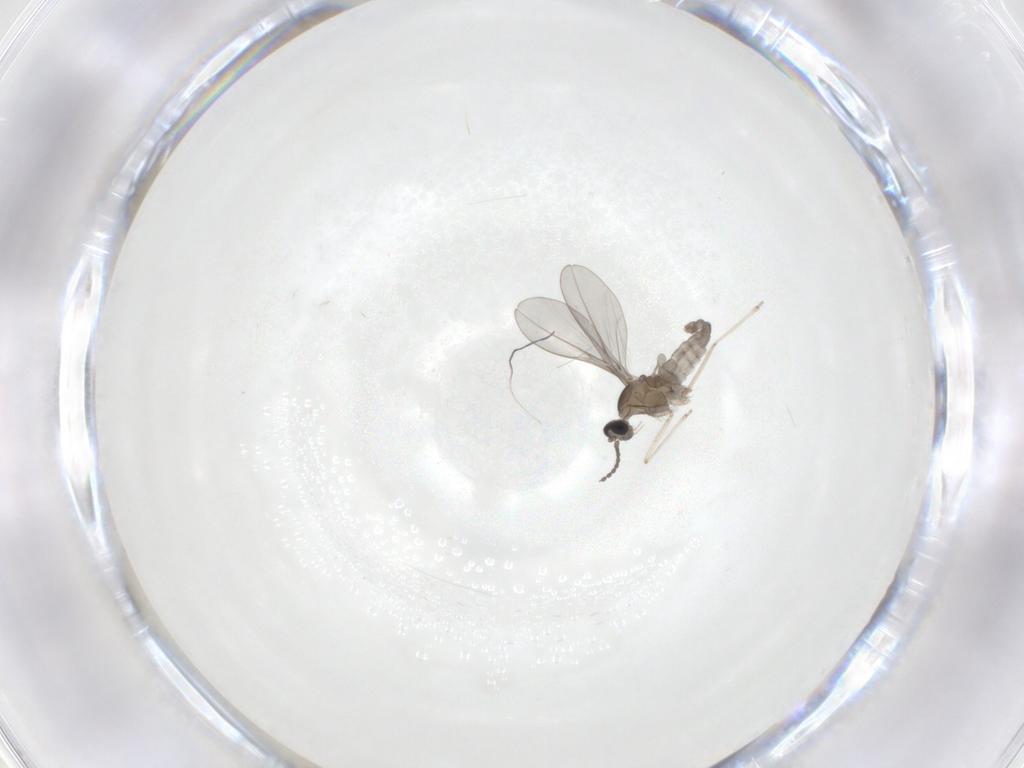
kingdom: Animalia
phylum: Arthropoda
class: Insecta
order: Diptera
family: Cecidomyiidae
